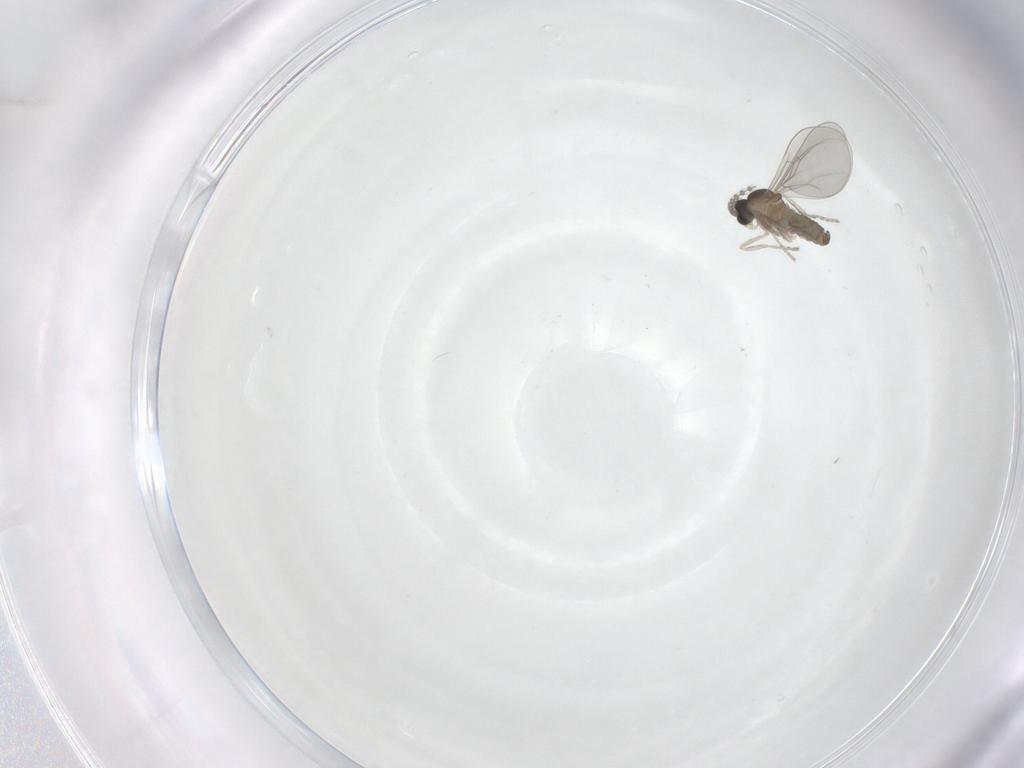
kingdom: Animalia
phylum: Arthropoda
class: Insecta
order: Diptera
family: Cecidomyiidae
